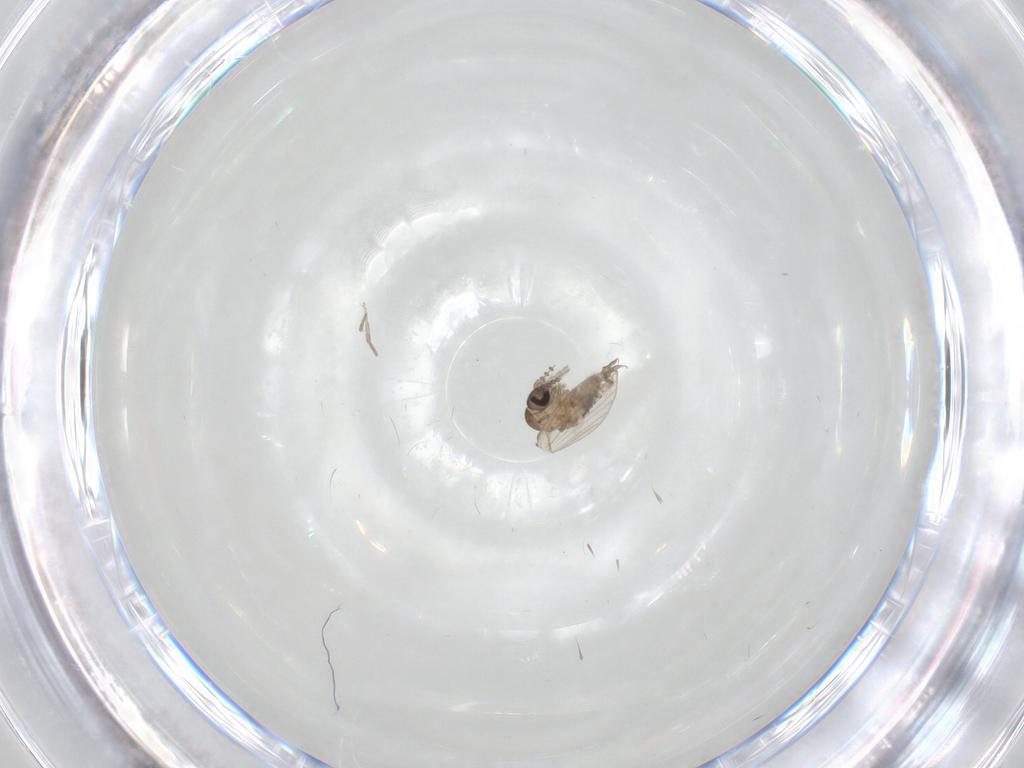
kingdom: Animalia
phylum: Arthropoda
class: Insecta
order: Diptera
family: Psychodidae
